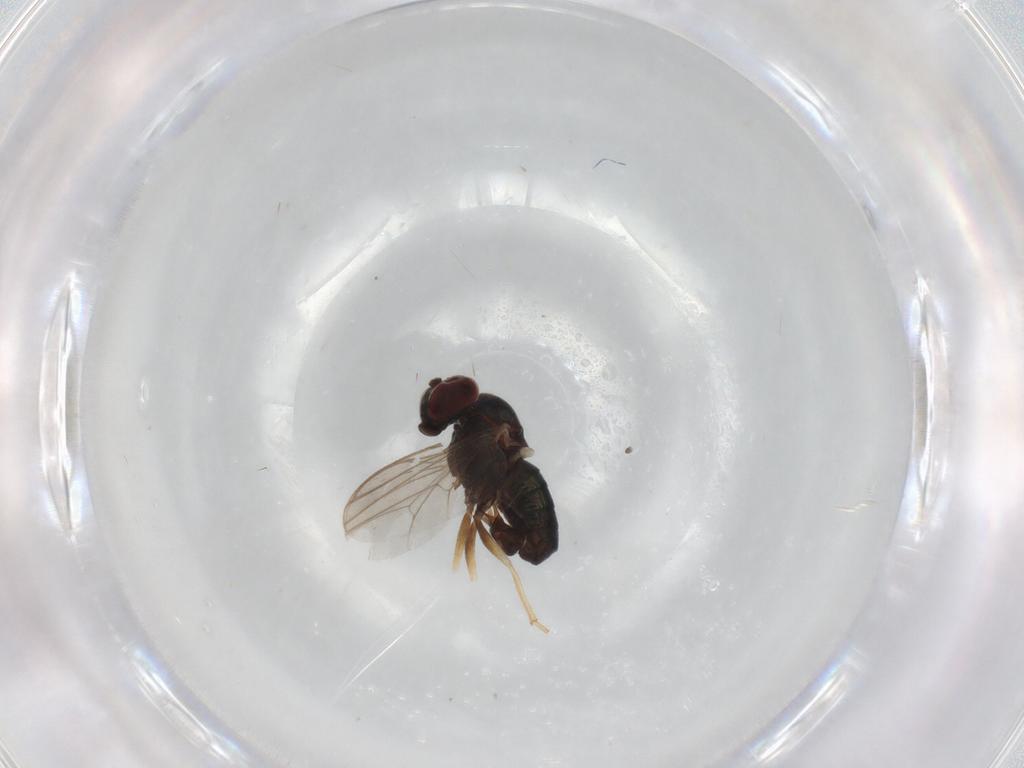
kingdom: Animalia
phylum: Arthropoda
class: Insecta
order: Diptera
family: Dolichopodidae
